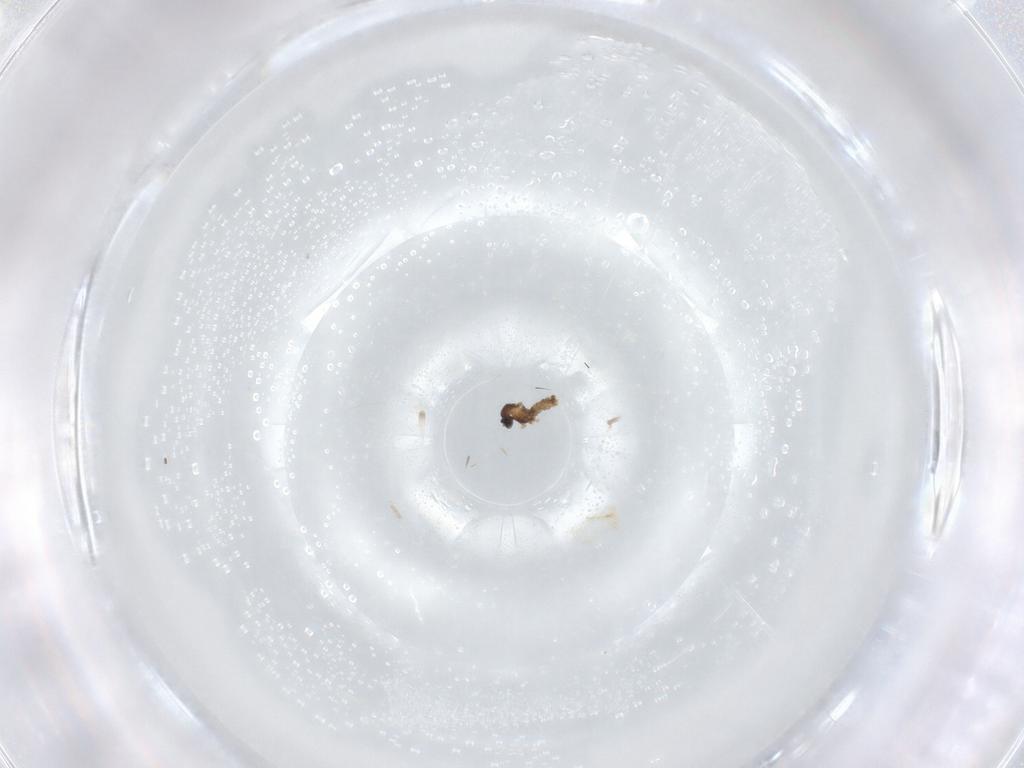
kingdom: Animalia
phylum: Arthropoda
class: Insecta
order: Diptera
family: Cecidomyiidae
